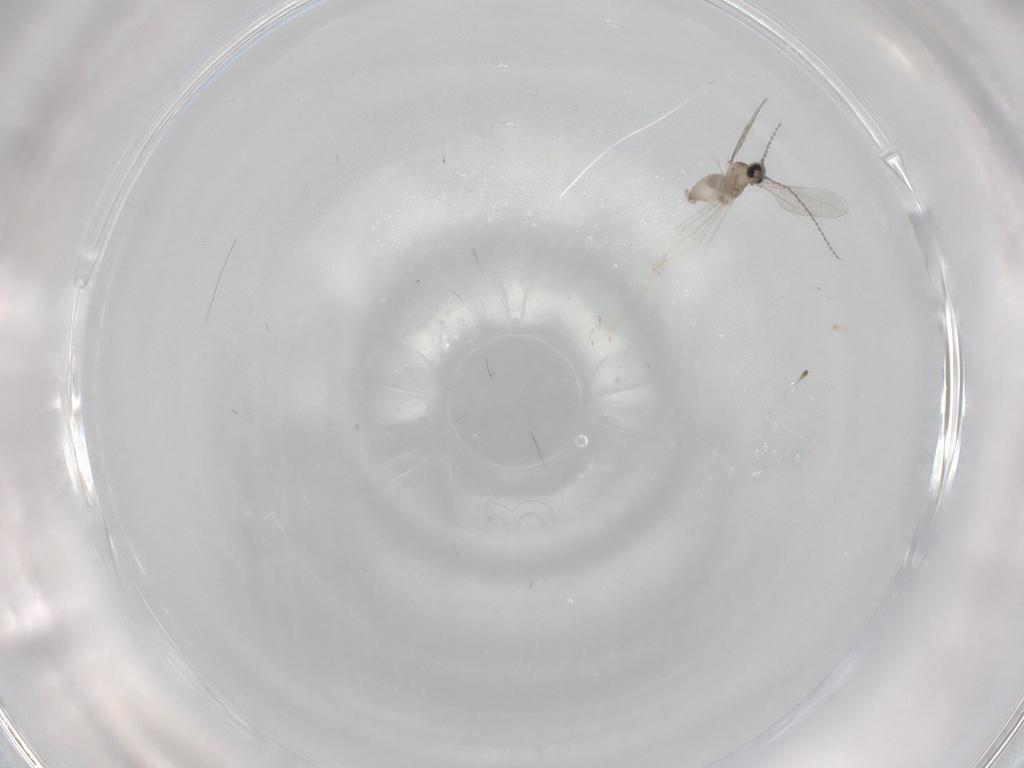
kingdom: Animalia
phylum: Arthropoda
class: Insecta
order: Diptera
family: Cecidomyiidae
